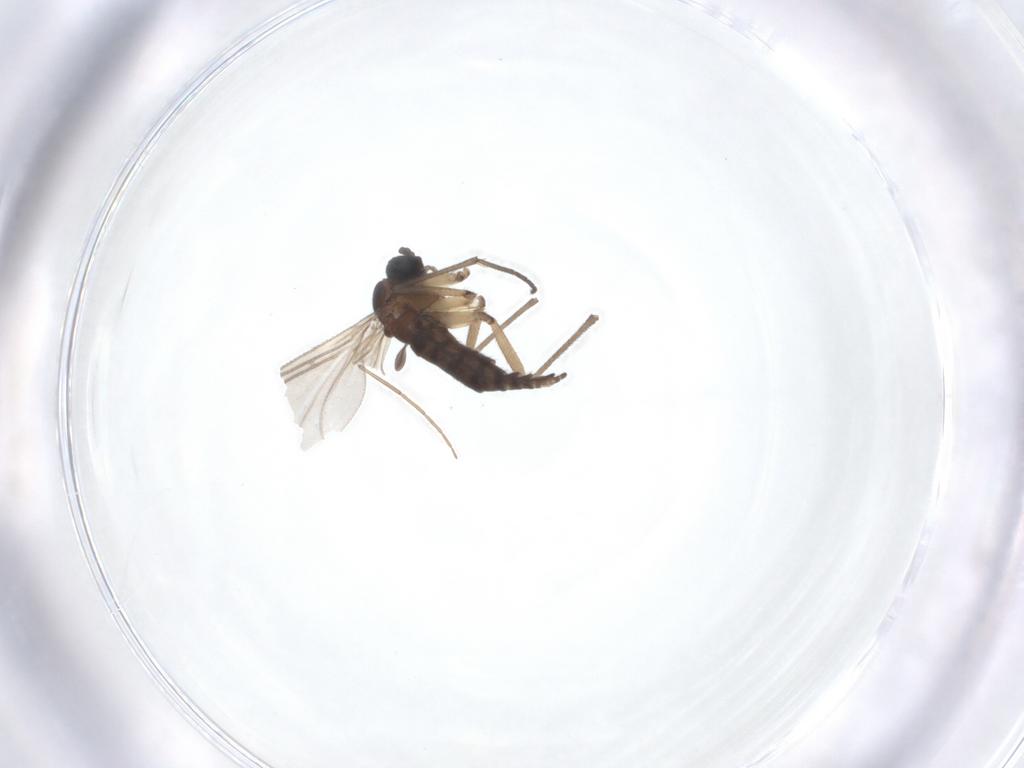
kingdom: Animalia
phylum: Arthropoda
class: Insecta
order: Diptera
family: Sciaridae
